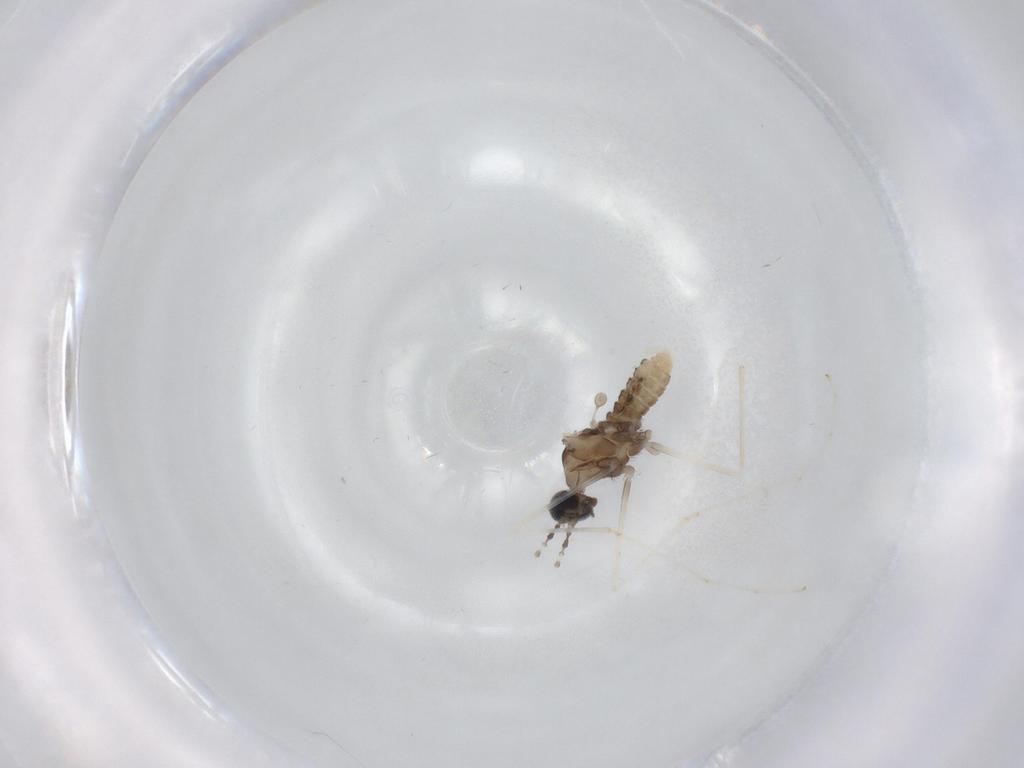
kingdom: Animalia
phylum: Arthropoda
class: Insecta
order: Diptera
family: Cecidomyiidae
